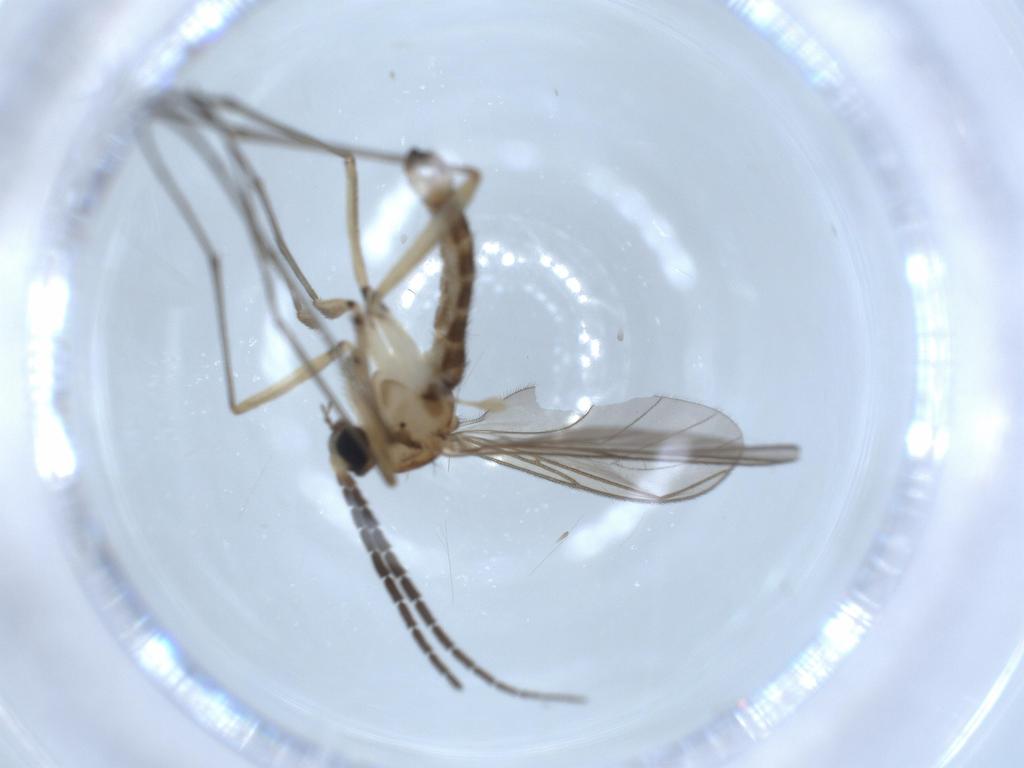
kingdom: Animalia
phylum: Arthropoda
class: Insecta
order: Diptera
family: Sciaridae
